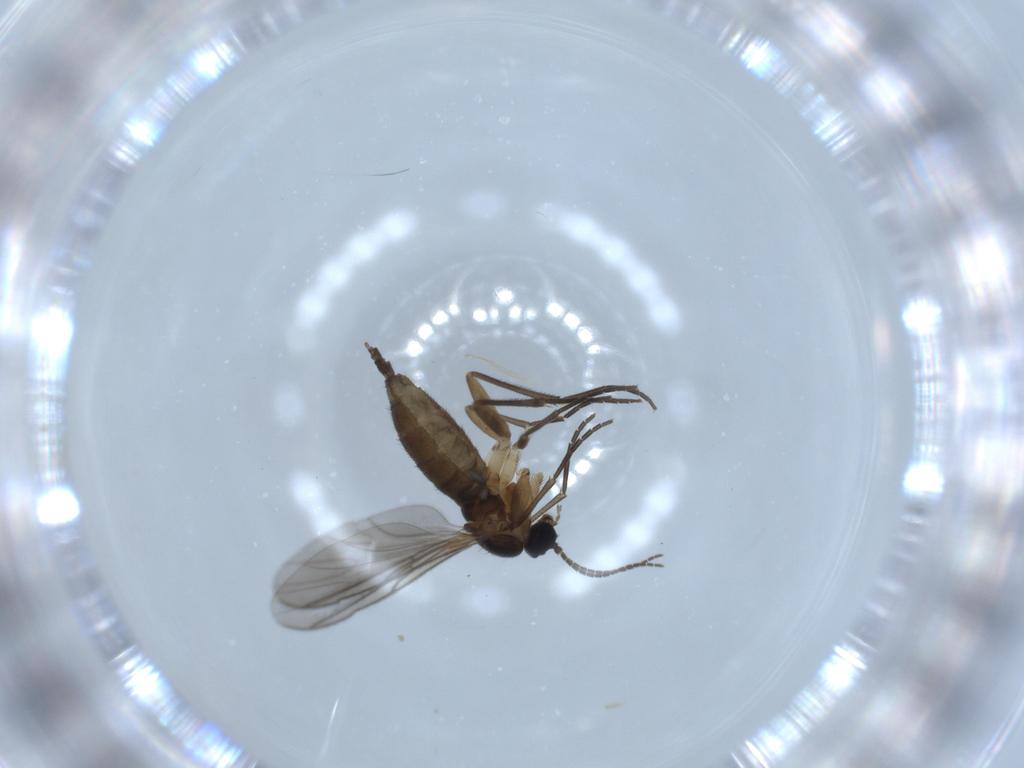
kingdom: Animalia
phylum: Arthropoda
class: Insecta
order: Diptera
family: Sciaridae
